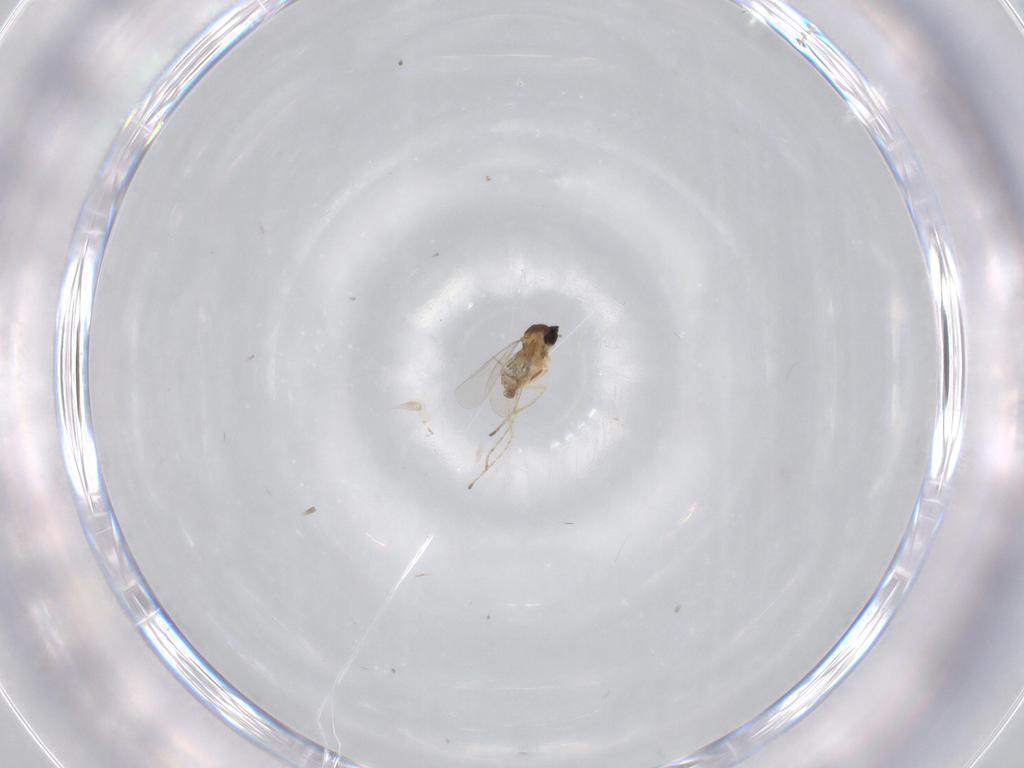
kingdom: Animalia
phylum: Arthropoda
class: Insecta
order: Diptera
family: Cecidomyiidae
